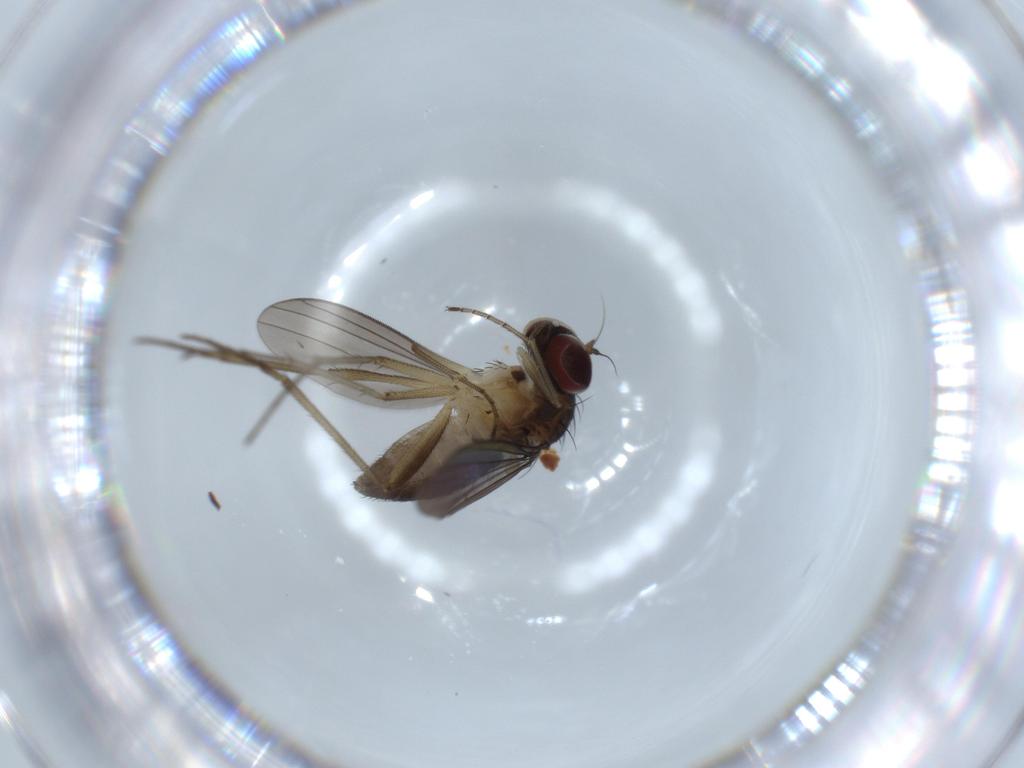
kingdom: Animalia
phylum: Arthropoda
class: Insecta
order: Diptera
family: Dolichopodidae
